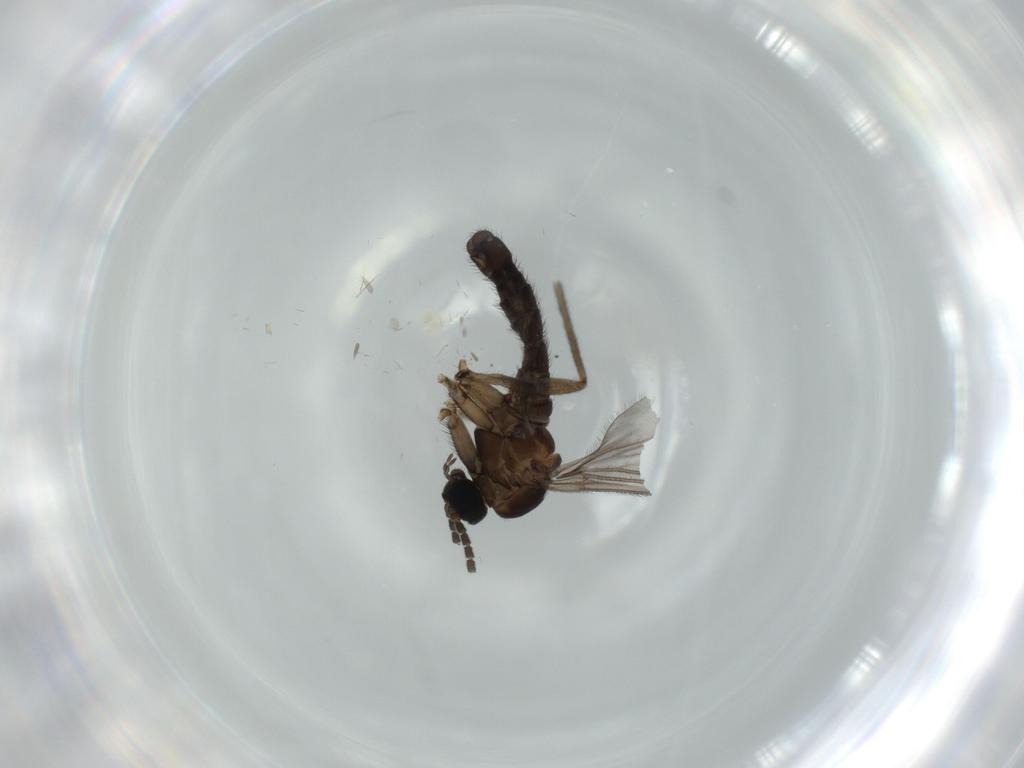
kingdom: Animalia
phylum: Arthropoda
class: Insecta
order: Diptera
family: Sciaridae
